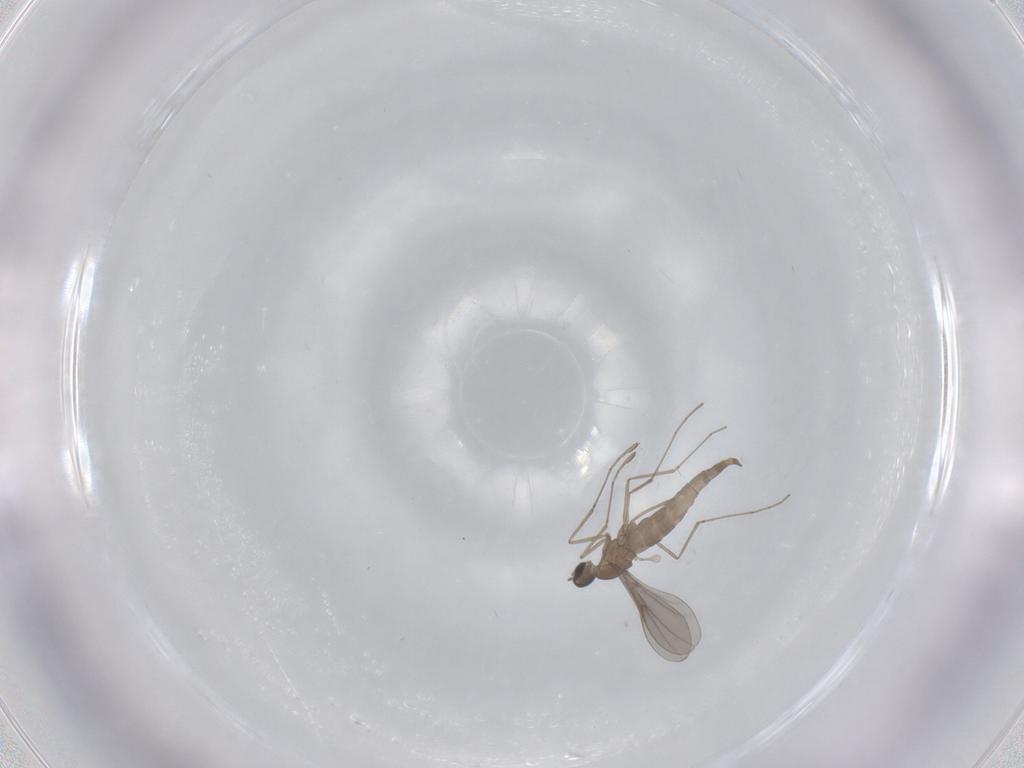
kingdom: Animalia
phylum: Arthropoda
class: Insecta
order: Diptera
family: Cecidomyiidae
